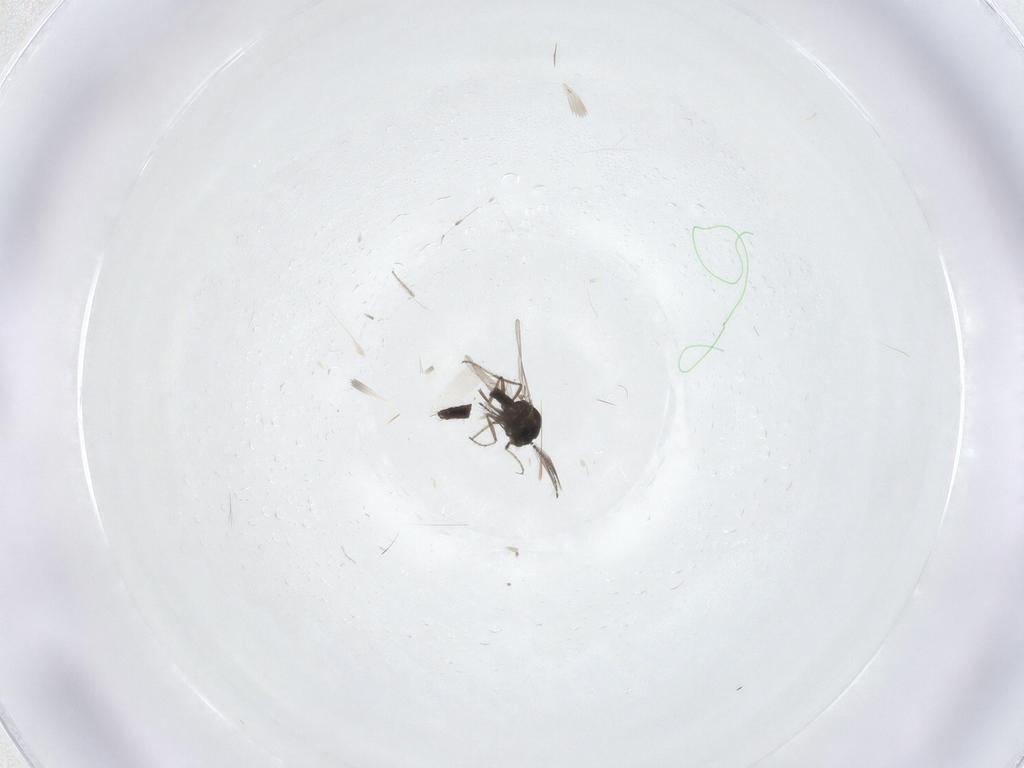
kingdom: Animalia
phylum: Arthropoda
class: Insecta
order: Diptera
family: Ceratopogonidae
